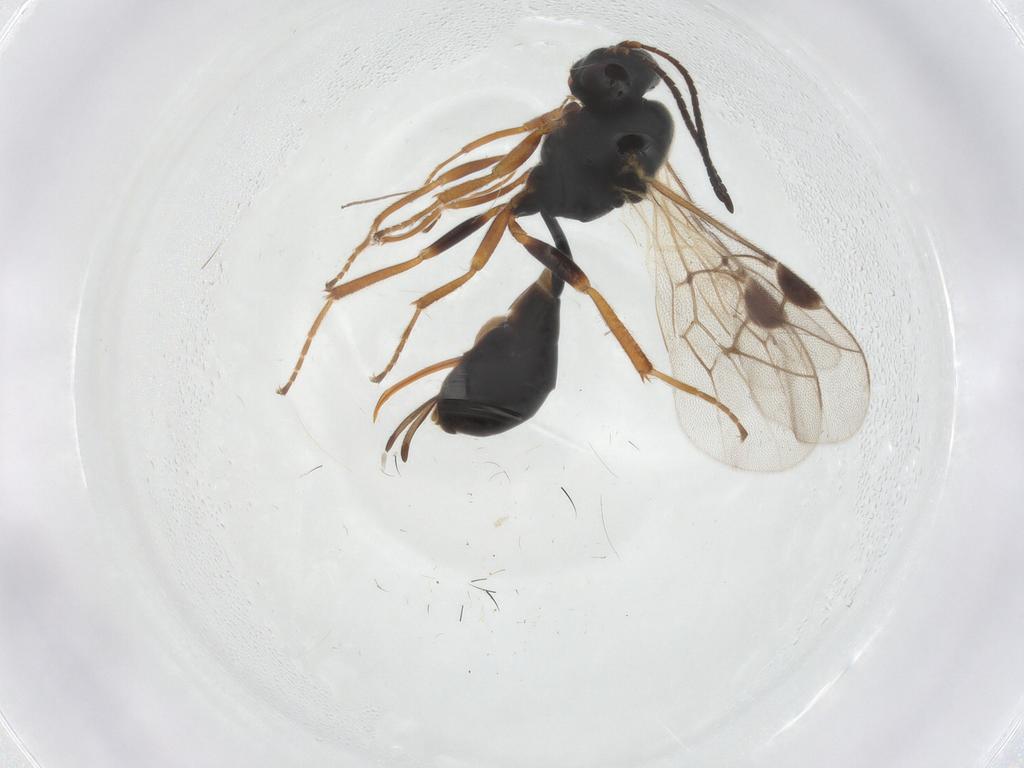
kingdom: Animalia
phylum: Arthropoda
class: Insecta
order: Hymenoptera
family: Ichneumonidae
